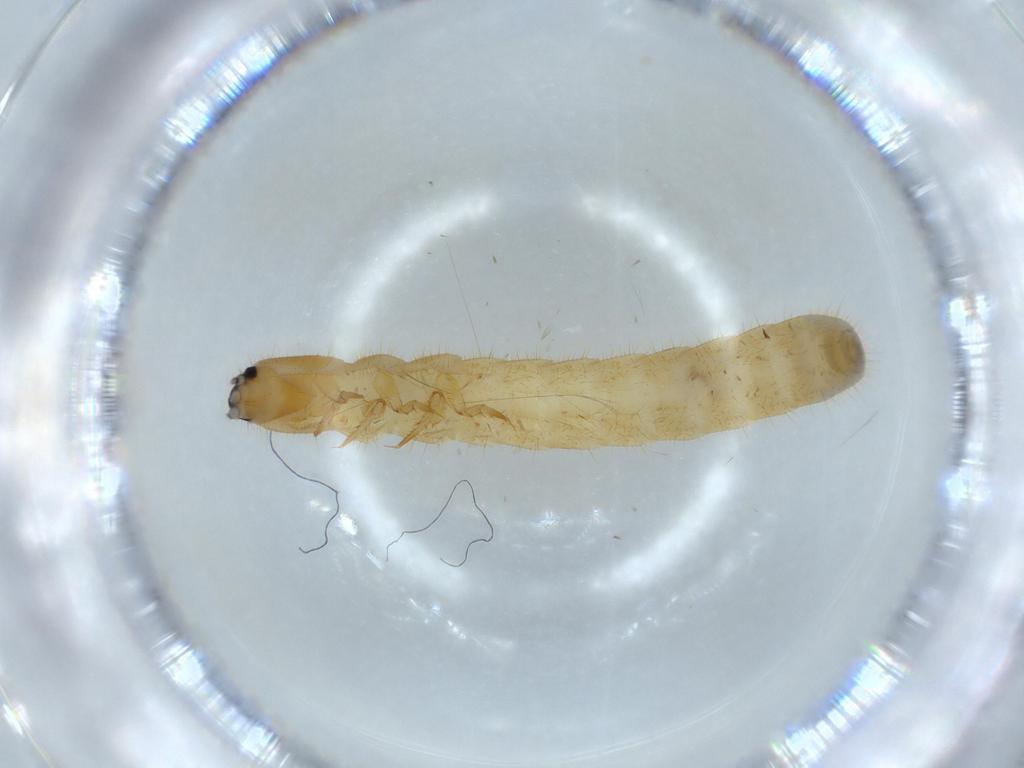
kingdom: Animalia
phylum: Arthropoda
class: Insecta
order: Coleoptera
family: Phengodidae
